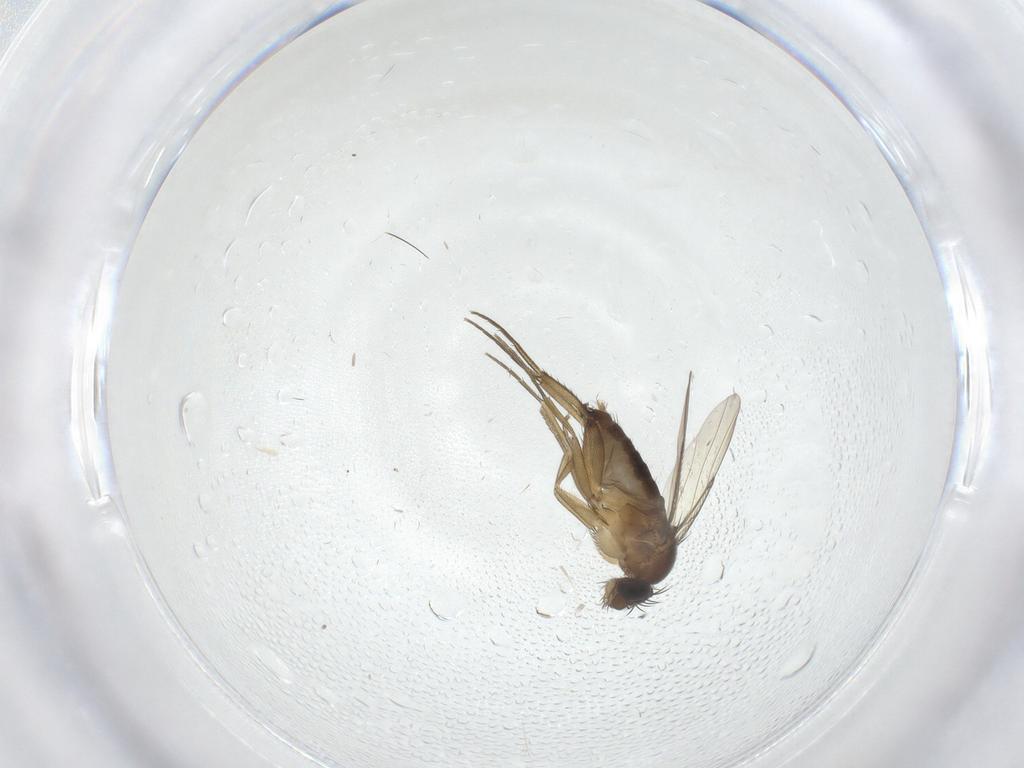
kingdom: Animalia
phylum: Arthropoda
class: Insecta
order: Diptera
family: Phoridae
